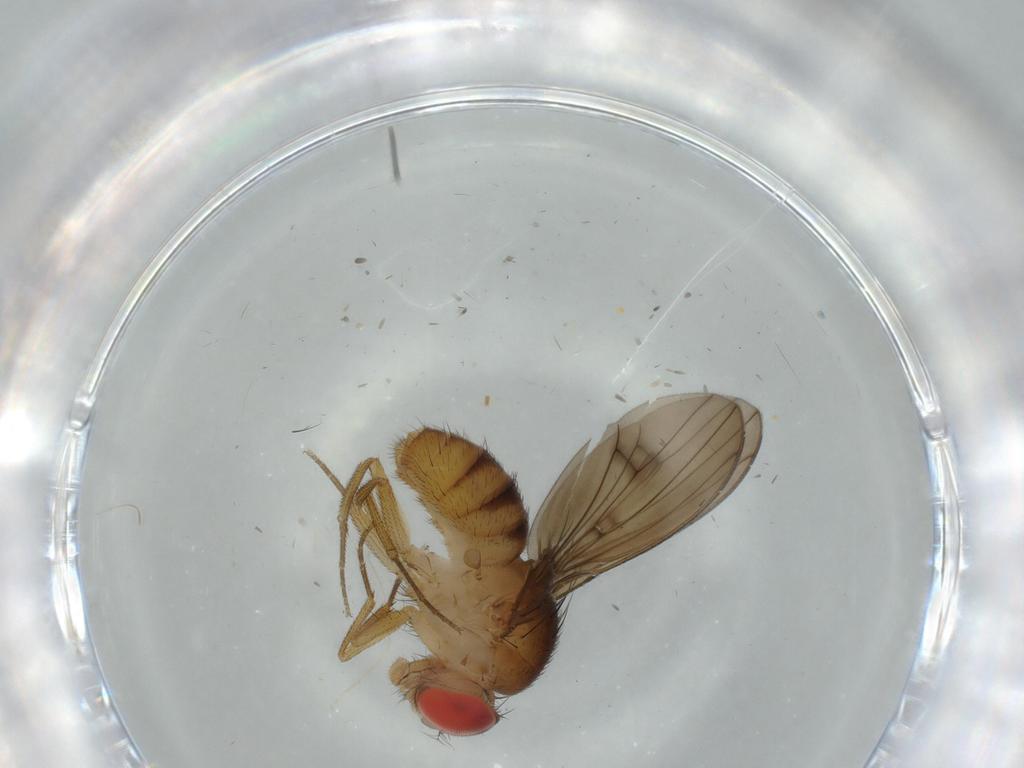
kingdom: Animalia
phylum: Arthropoda
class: Insecta
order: Diptera
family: Drosophilidae
